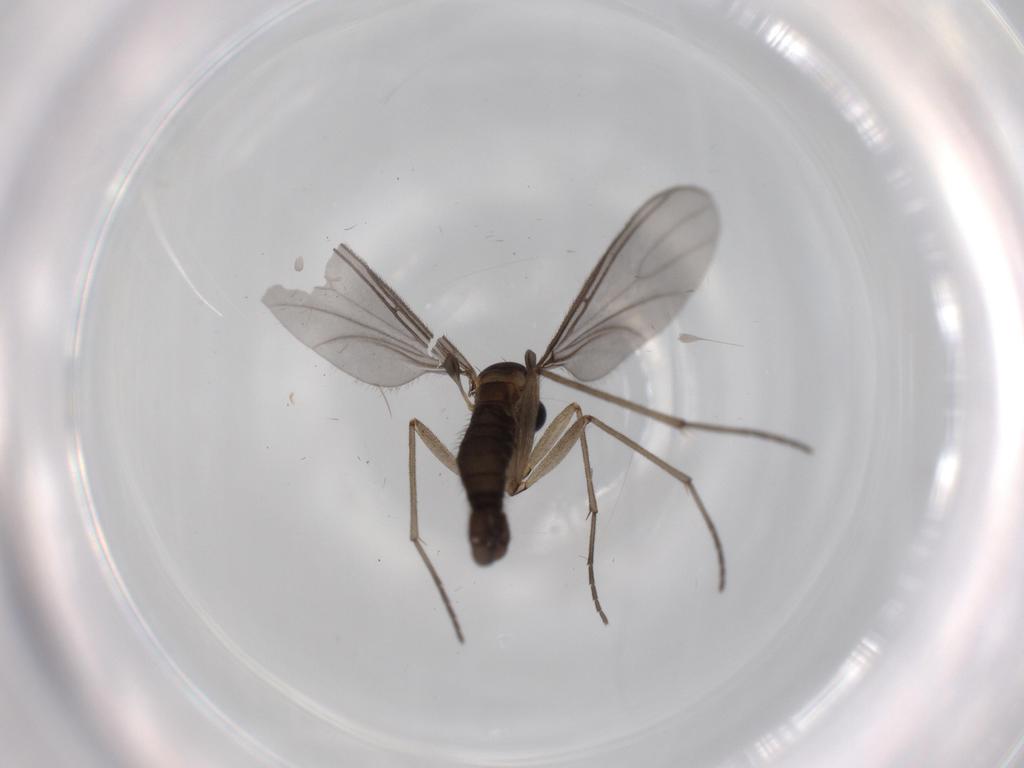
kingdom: Animalia
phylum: Arthropoda
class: Insecta
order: Diptera
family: Sciaridae
